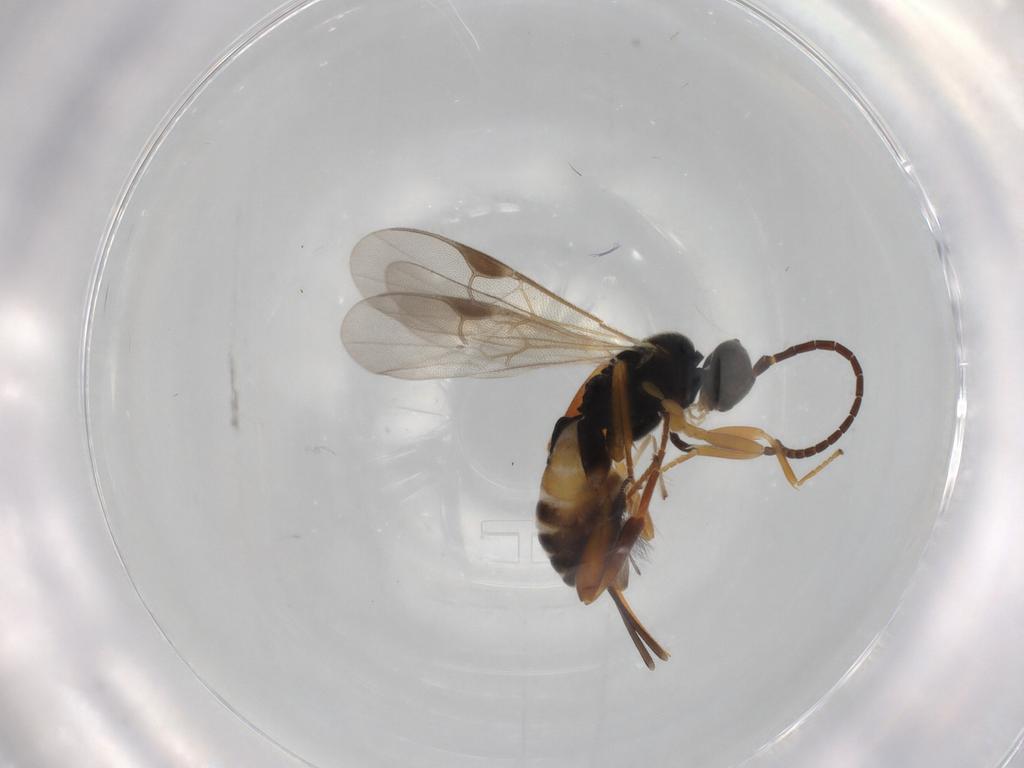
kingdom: Animalia
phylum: Arthropoda
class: Insecta
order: Hymenoptera
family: Braconidae
